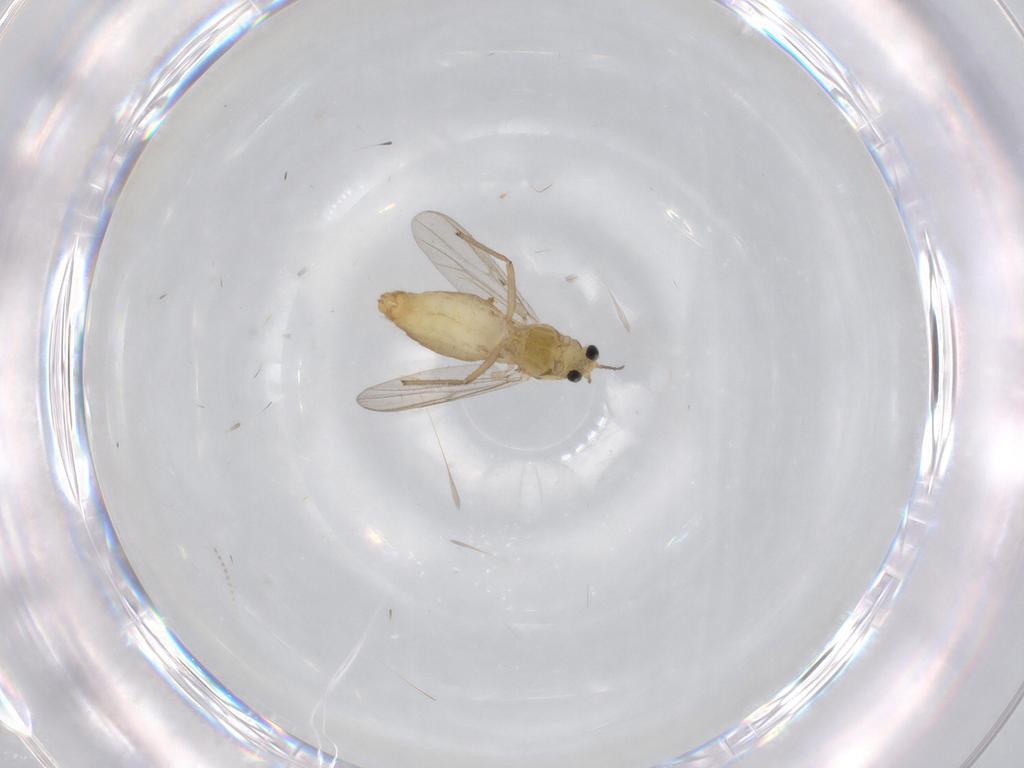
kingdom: Animalia
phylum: Arthropoda
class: Insecta
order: Diptera
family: Chironomidae
